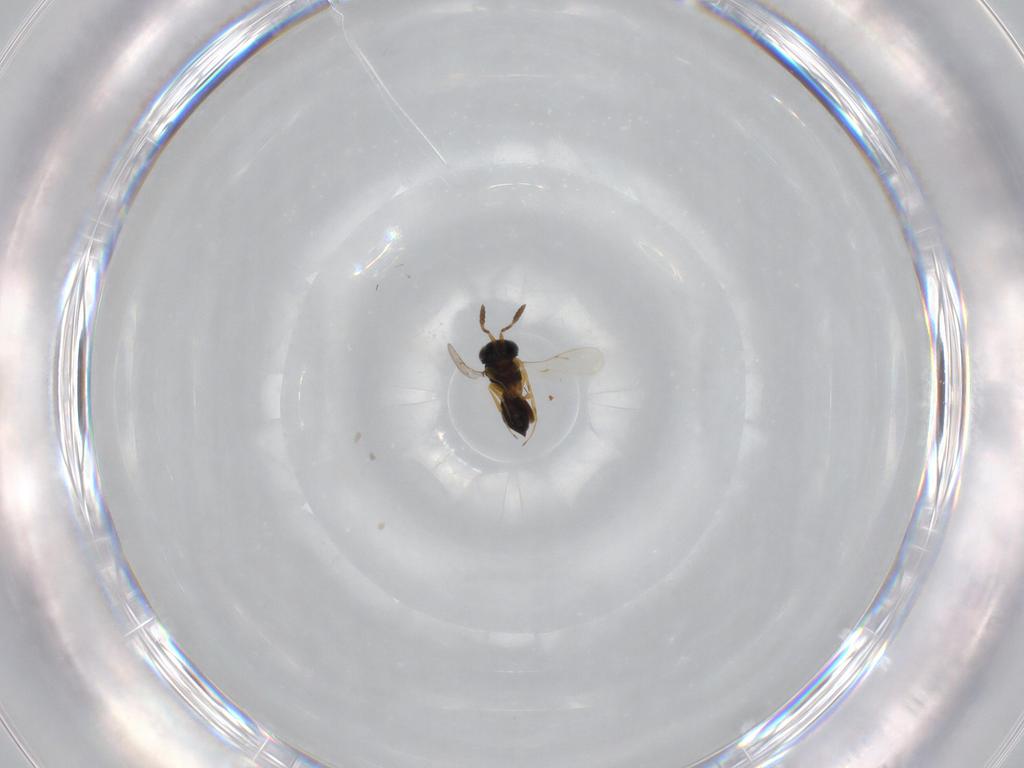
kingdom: Animalia
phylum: Arthropoda
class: Insecta
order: Hymenoptera
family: Scelionidae
